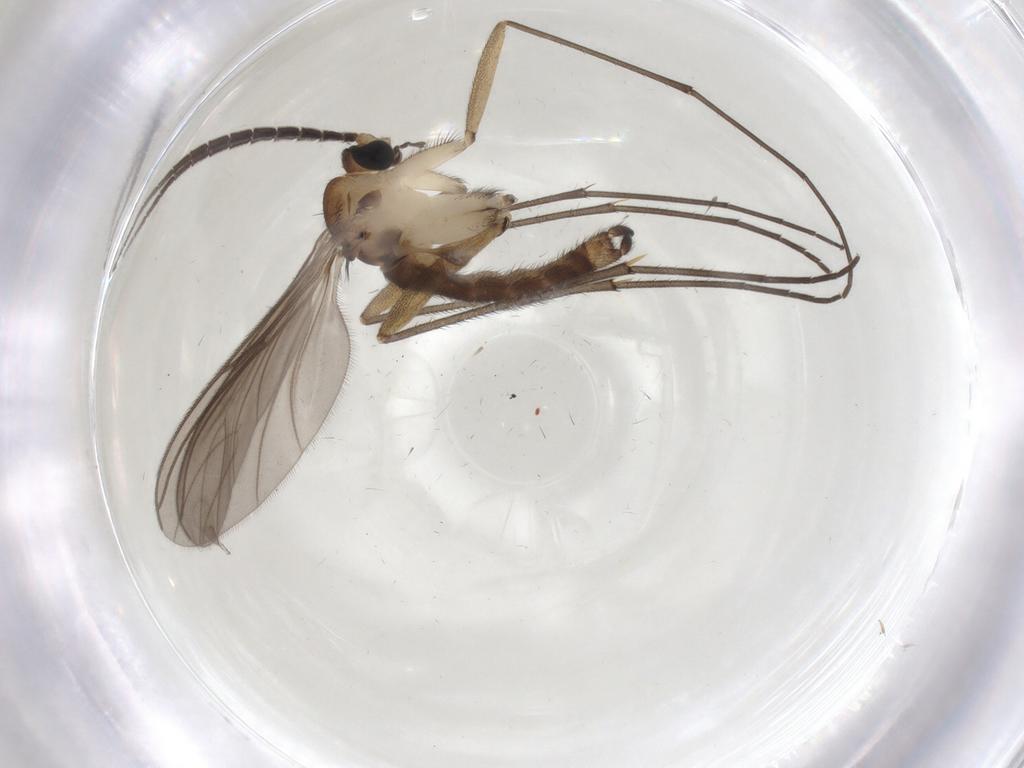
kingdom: Animalia
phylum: Arthropoda
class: Insecta
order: Diptera
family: Sciaridae
